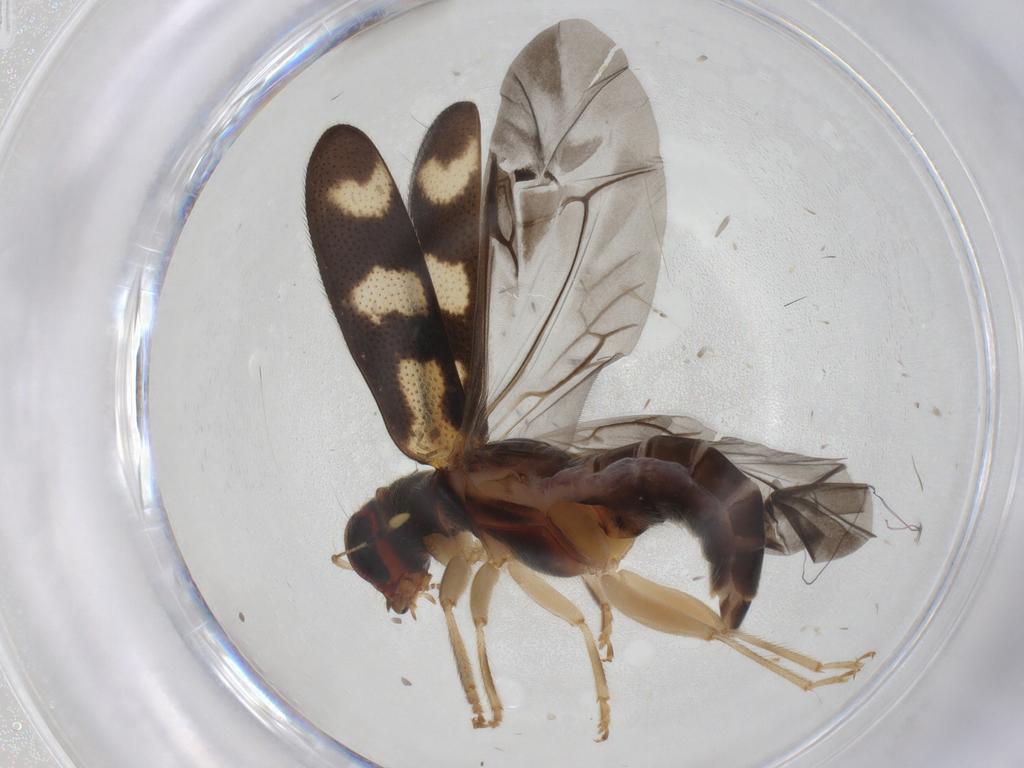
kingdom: Animalia
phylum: Arthropoda
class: Insecta
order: Coleoptera
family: Cleridae
